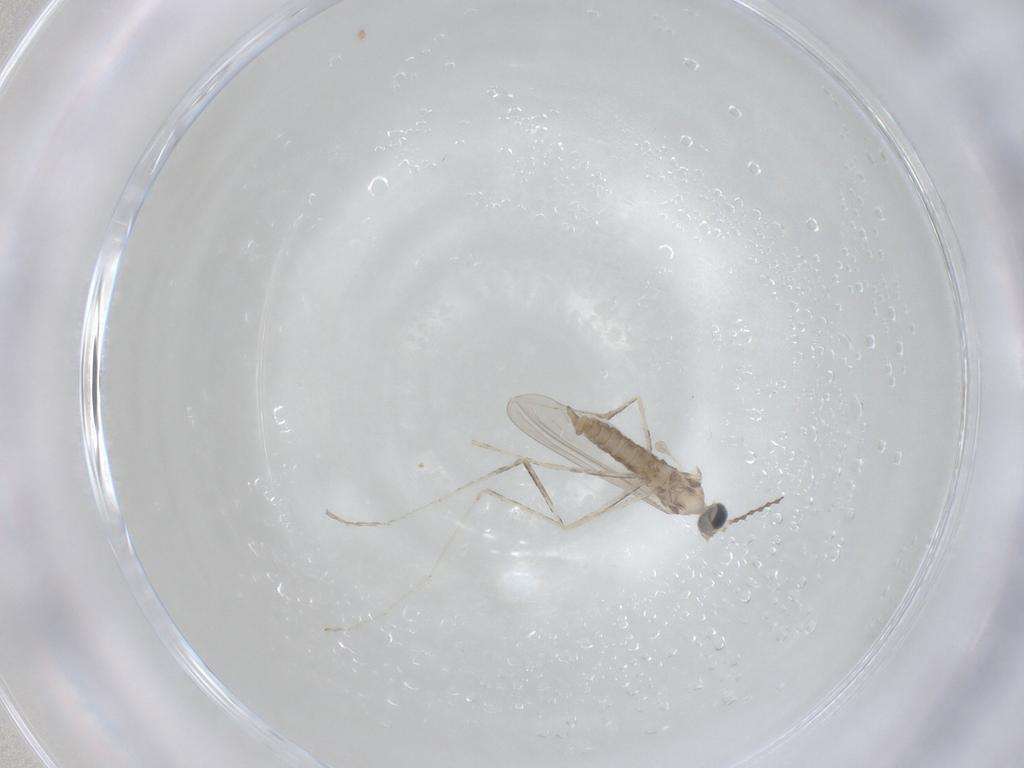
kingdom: Animalia
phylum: Arthropoda
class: Insecta
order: Diptera
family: Cecidomyiidae
